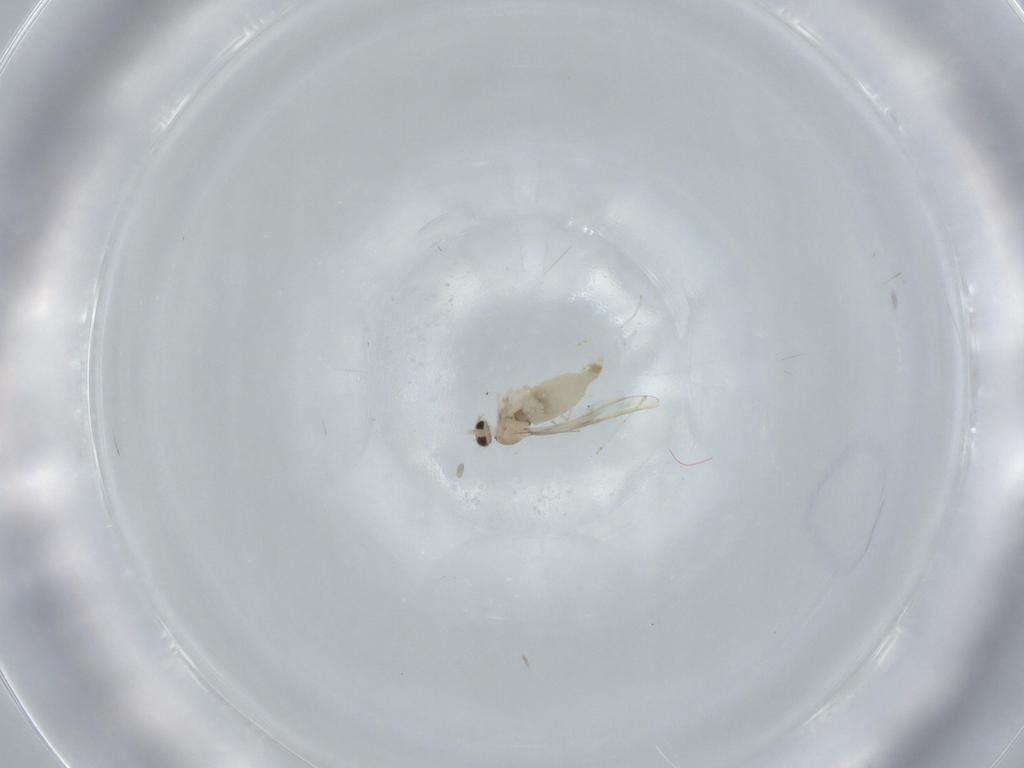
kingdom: Animalia
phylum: Arthropoda
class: Insecta
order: Diptera
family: Cecidomyiidae
